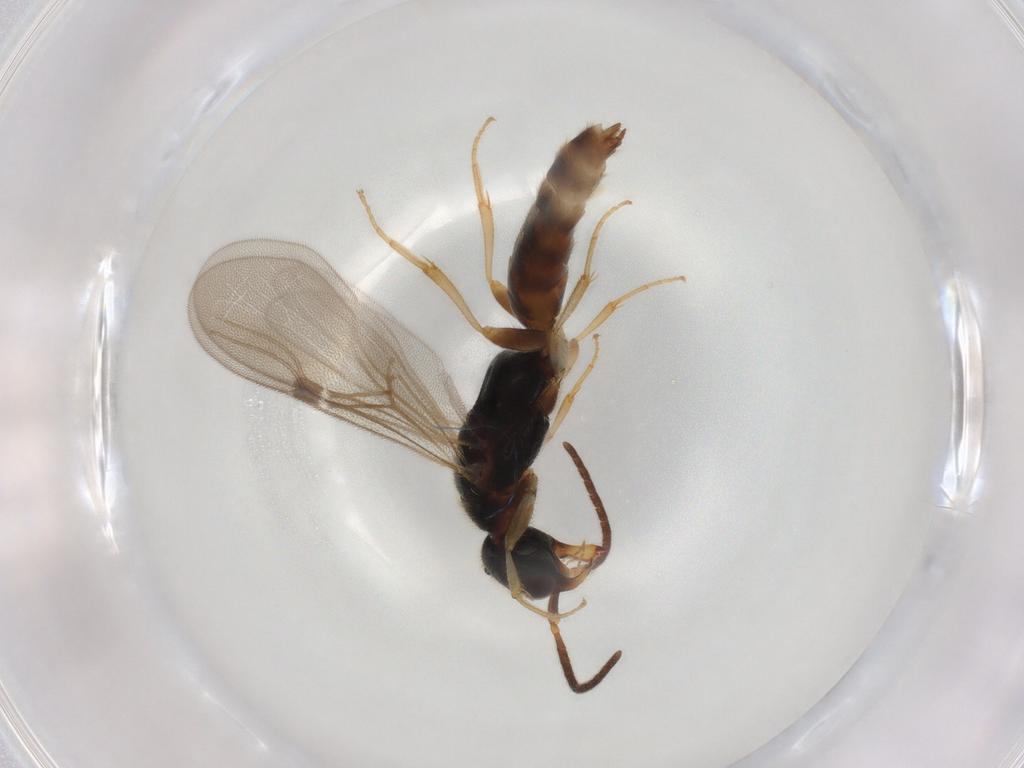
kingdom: Animalia
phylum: Arthropoda
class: Insecta
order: Hymenoptera
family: Bethylidae
